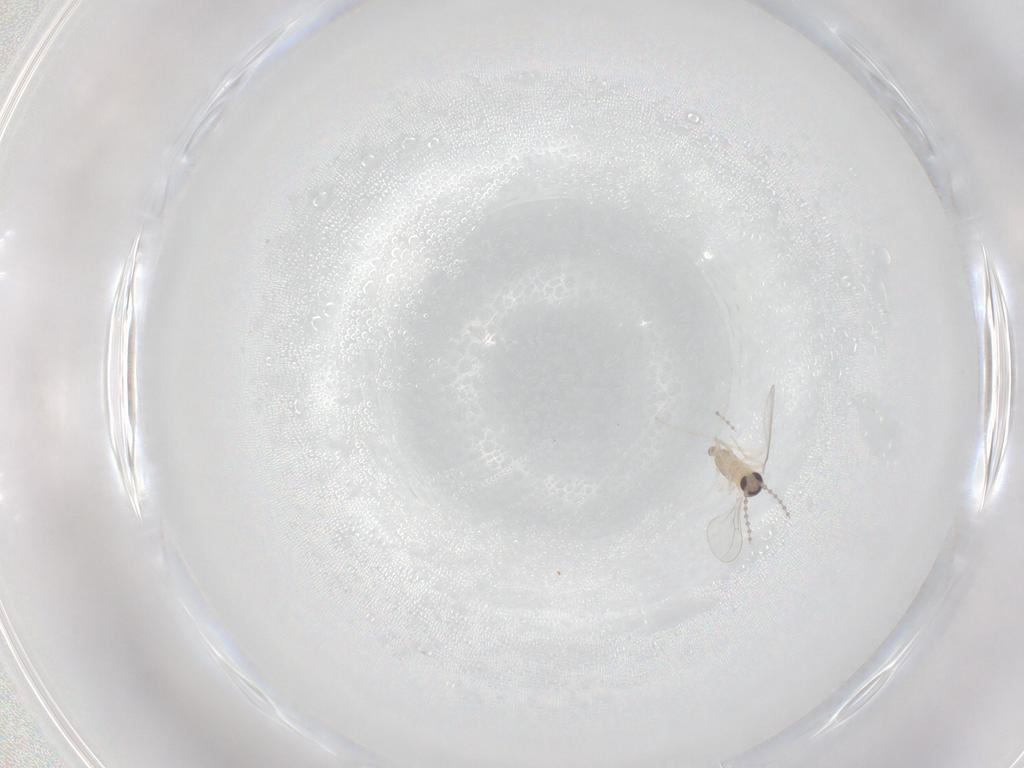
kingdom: Animalia
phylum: Arthropoda
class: Insecta
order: Diptera
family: Cecidomyiidae
